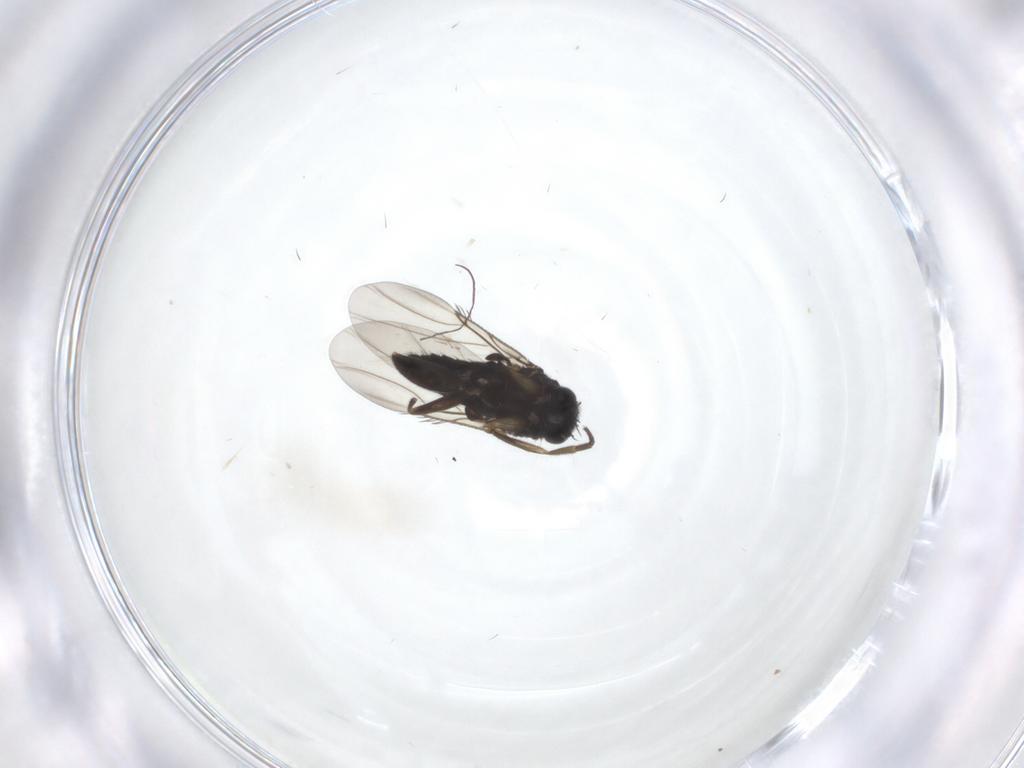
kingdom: Animalia
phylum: Arthropoda
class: Insecta
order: Diptera
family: Phoridae
